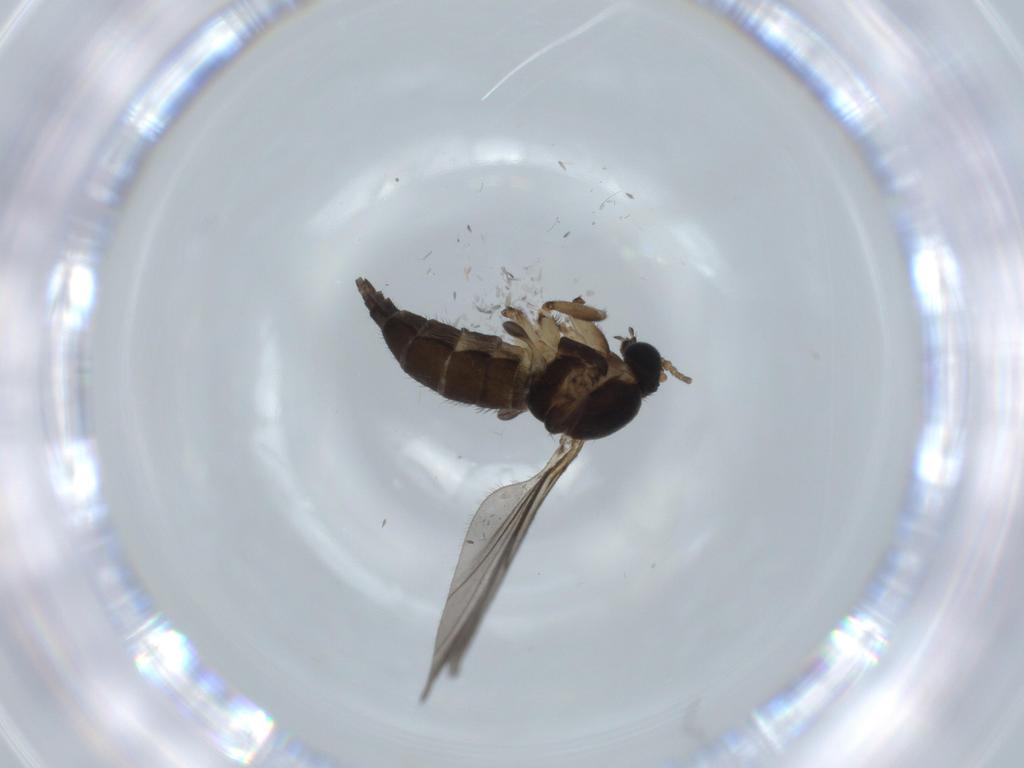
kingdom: Animalia
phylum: Arthropoda
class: Insecta
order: Diptera
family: Sciaridae
